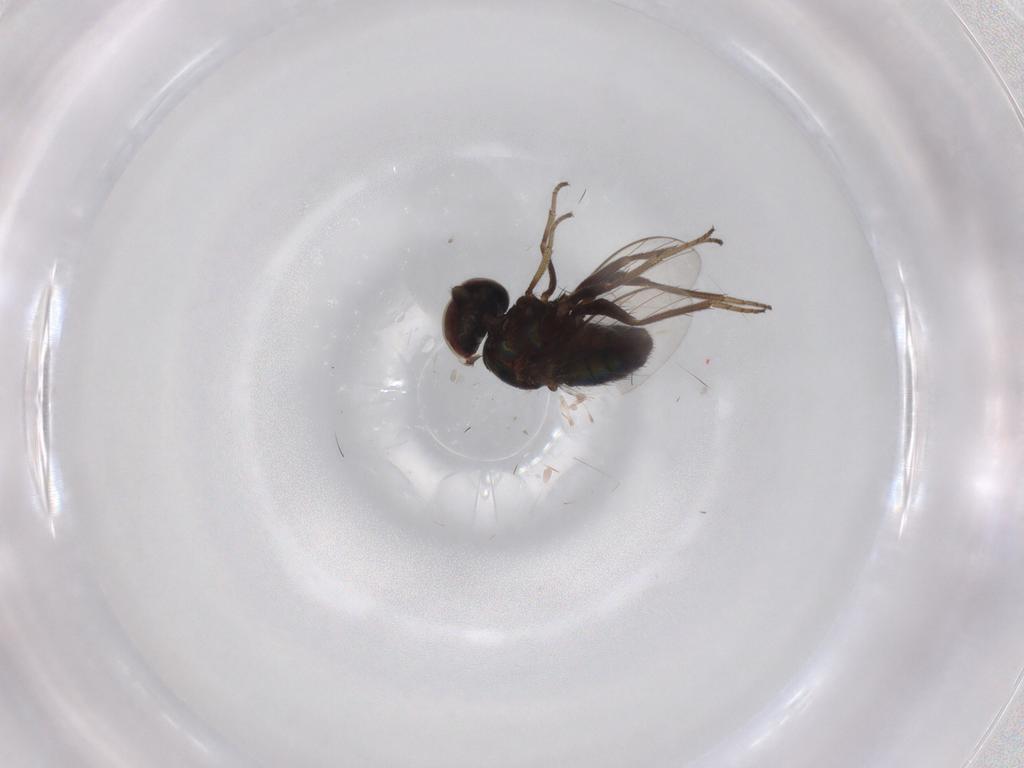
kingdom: Animalia
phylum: Arthropoda
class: Insecta
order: Diptera
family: Dolichopodidae
